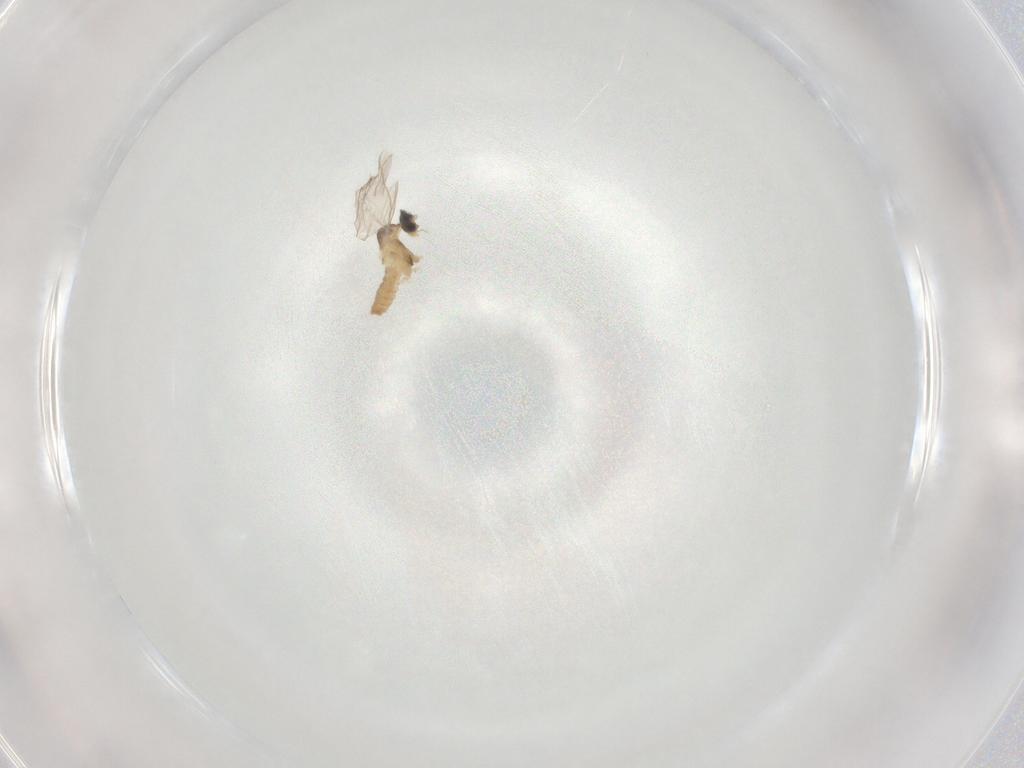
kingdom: Animalia
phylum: Arthropoda
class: Insecta
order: Diptera
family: Cecidomyiidae
